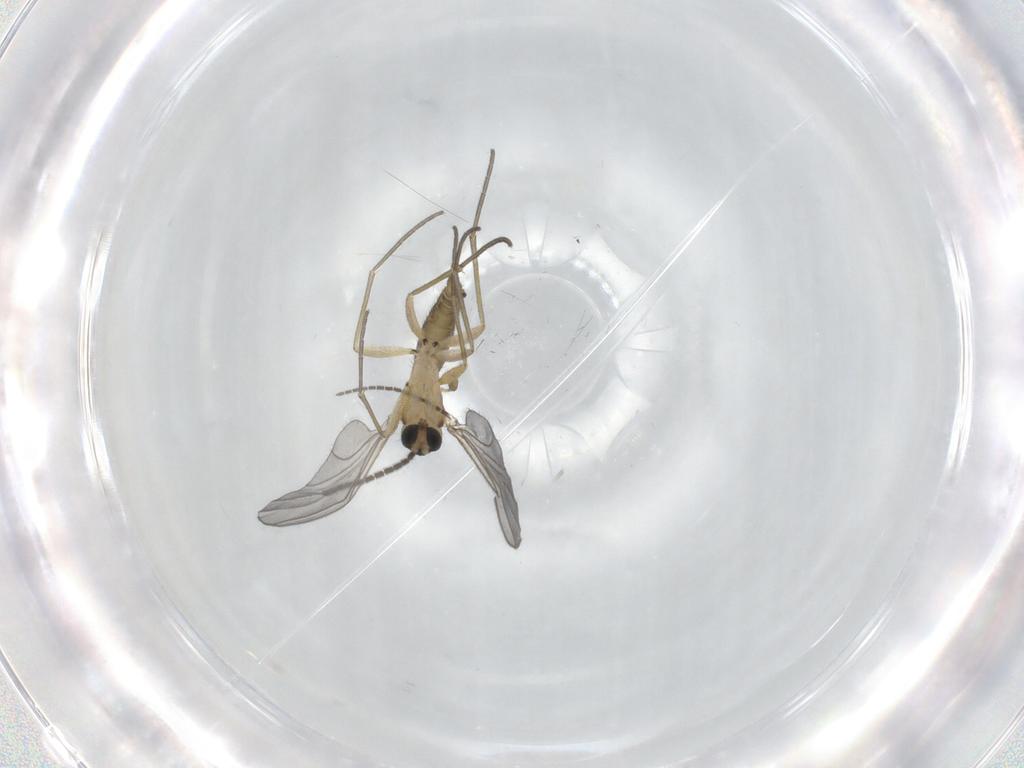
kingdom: Animalia
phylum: Arthropoda
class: Insecta
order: Diptera
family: Sciaridae
